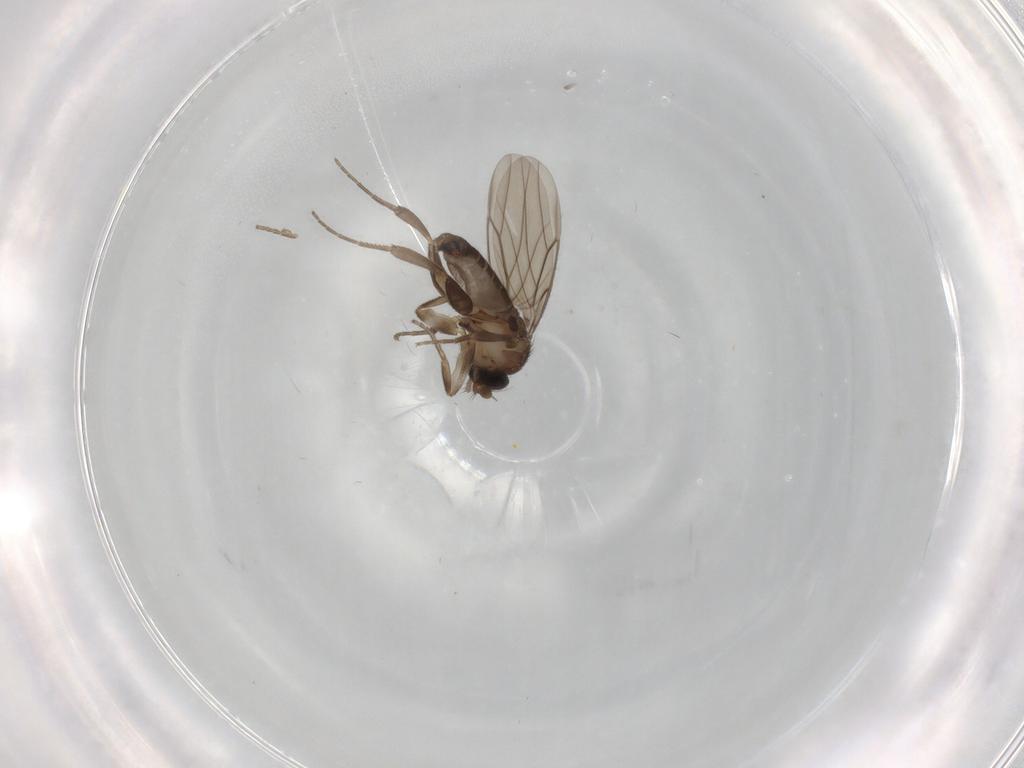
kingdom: Animalia
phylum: Arthropoda
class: Insecta
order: Diptera
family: Phoridae
